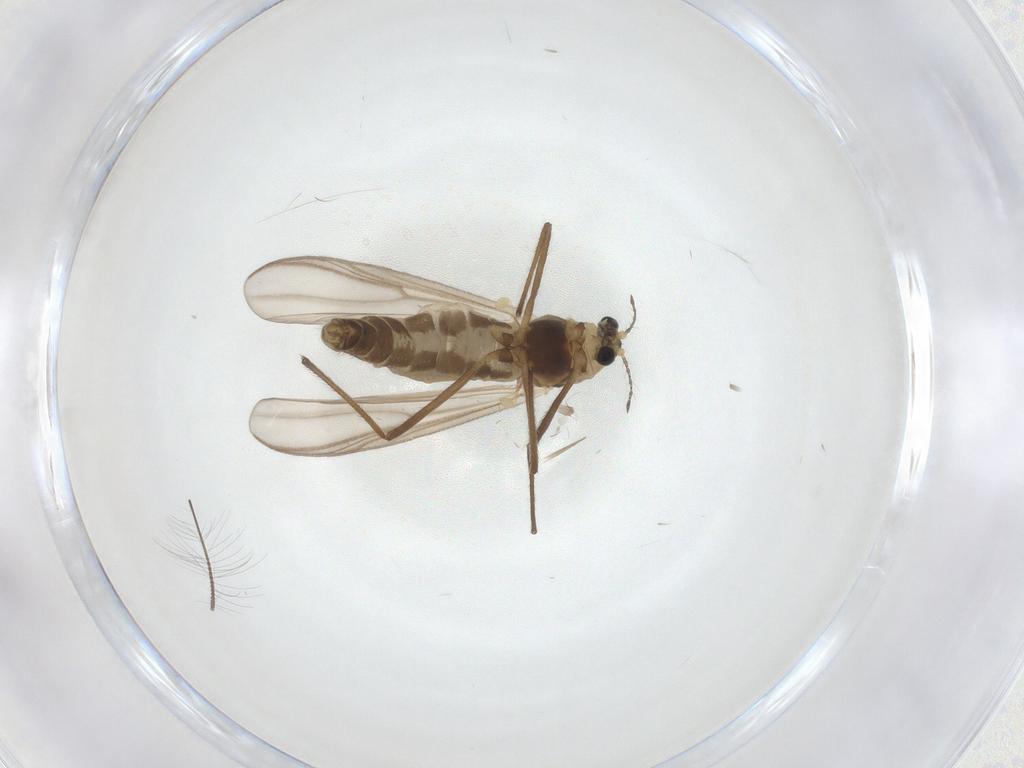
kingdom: Animalia
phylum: Arthropoda
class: Insecta
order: Diptera
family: Chironomidae
